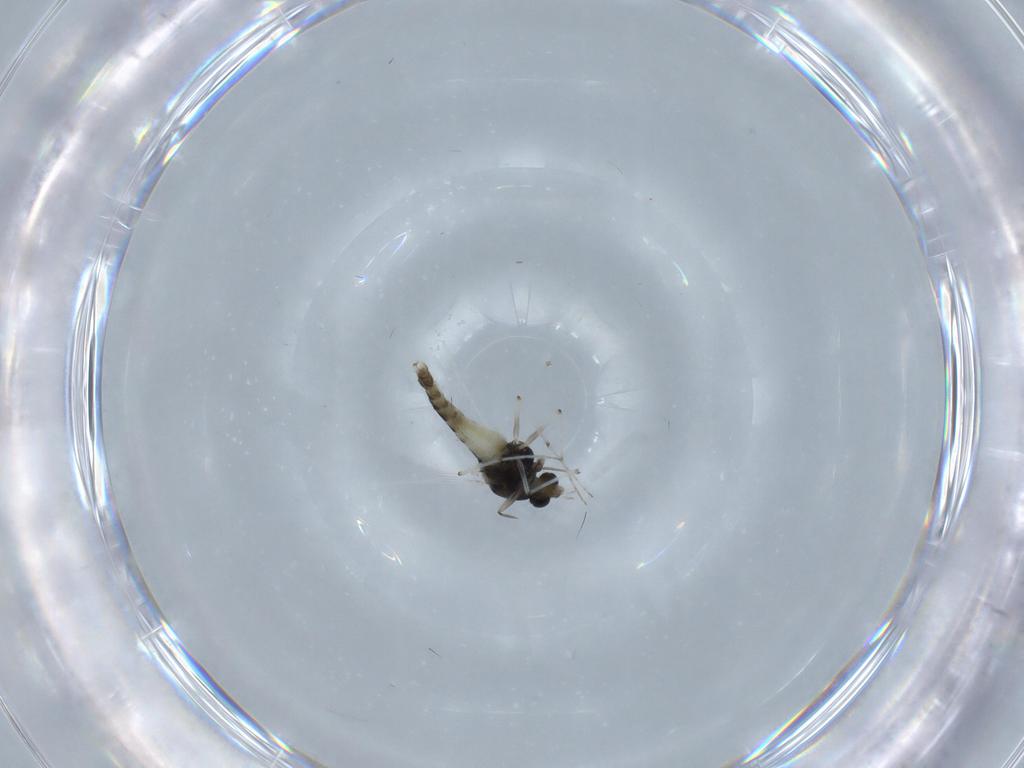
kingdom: Animalia
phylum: Arthropoda
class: Insecta
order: Diptera
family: Chironomidae
